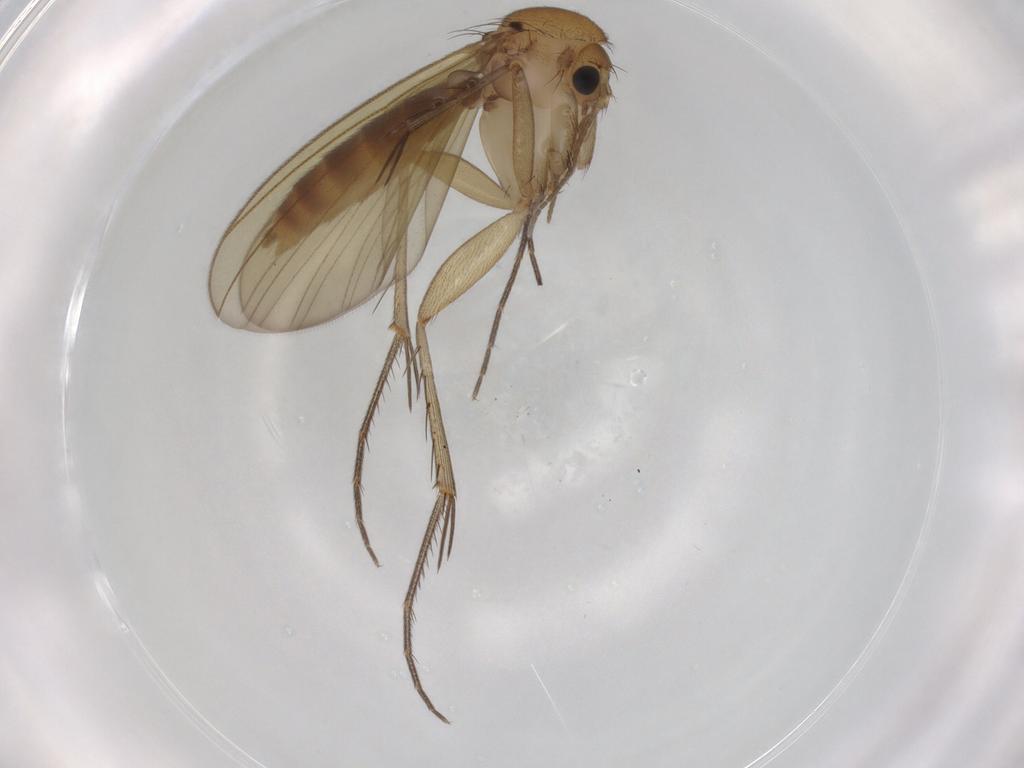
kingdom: Animalia
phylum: Arthropoda
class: Insecta
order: Diptera
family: Mycetophilidae
